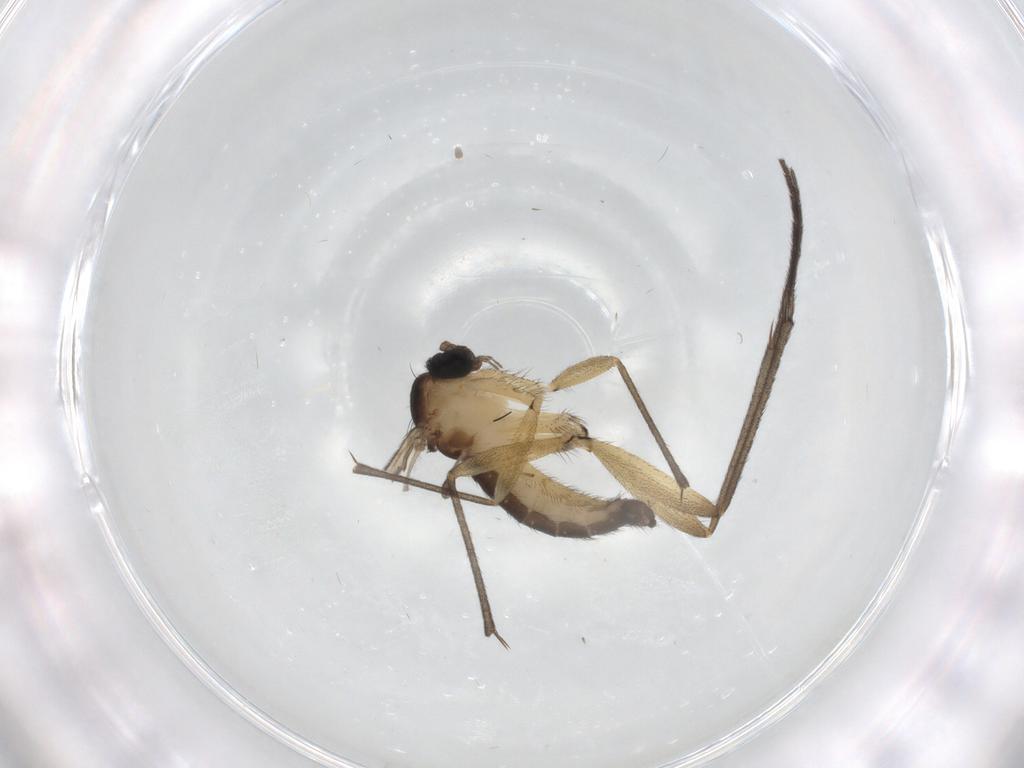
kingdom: Animalia
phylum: Arthropoda
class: Insecta
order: Diptera
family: Sciaridae
